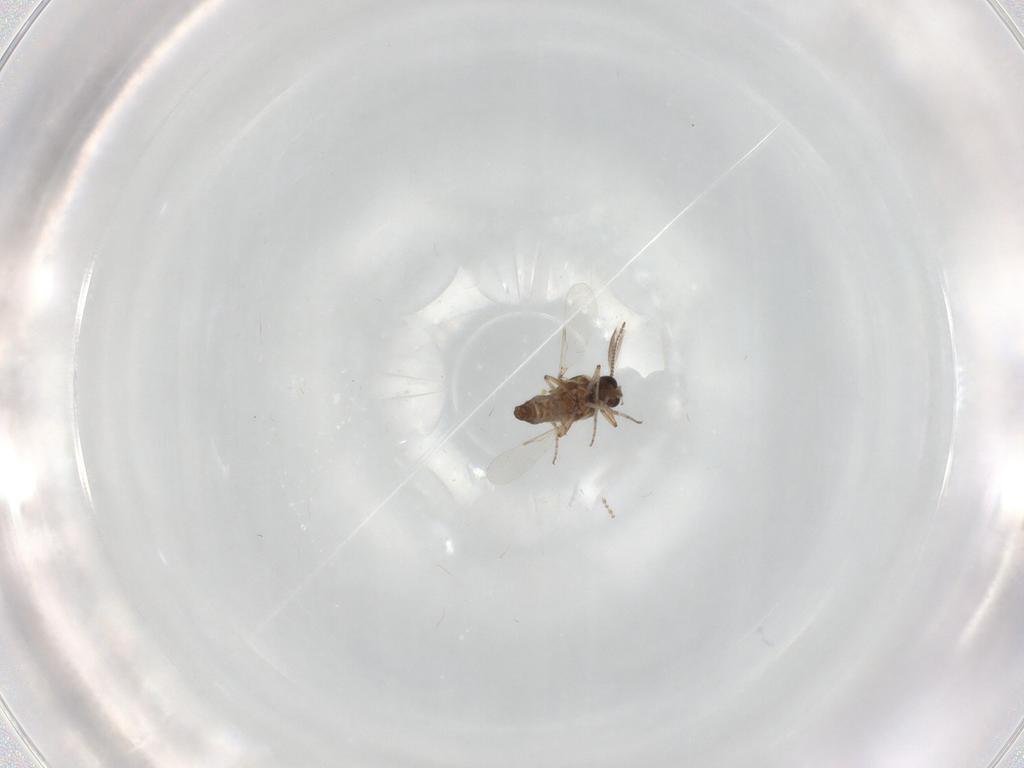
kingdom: Animalia
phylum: Arthropoda
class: Insecta
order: Diptera
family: Ceratopogonidae
